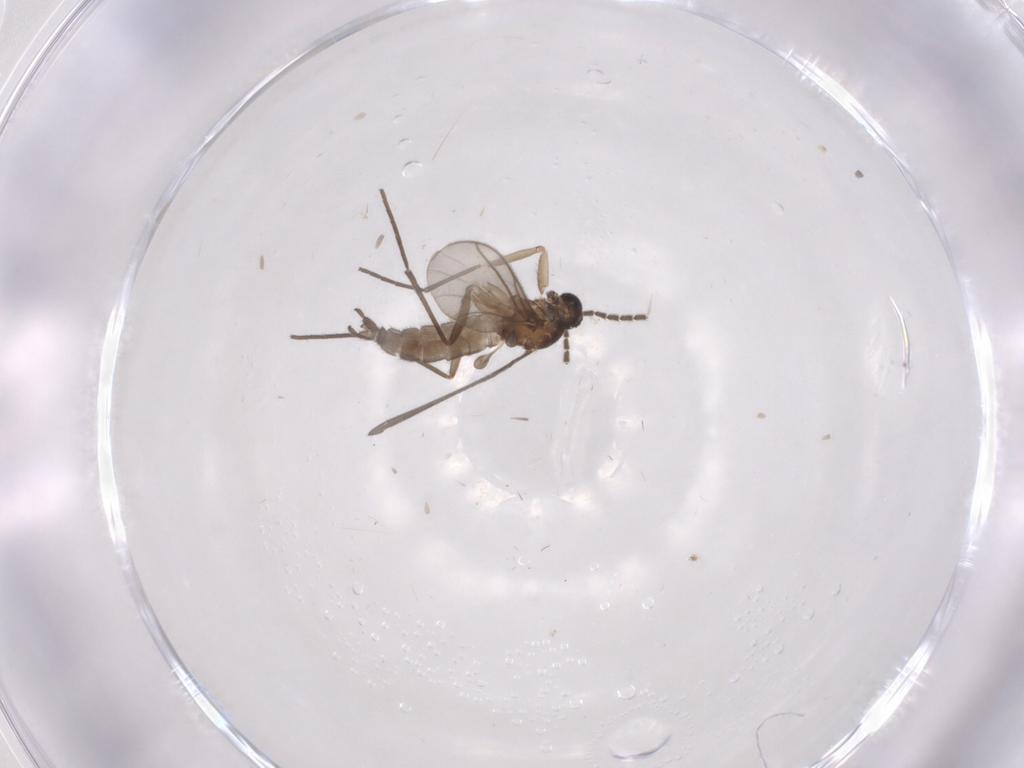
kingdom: Animalia
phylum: Arthropoda
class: Insecta
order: Diptera
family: Sciaridae
